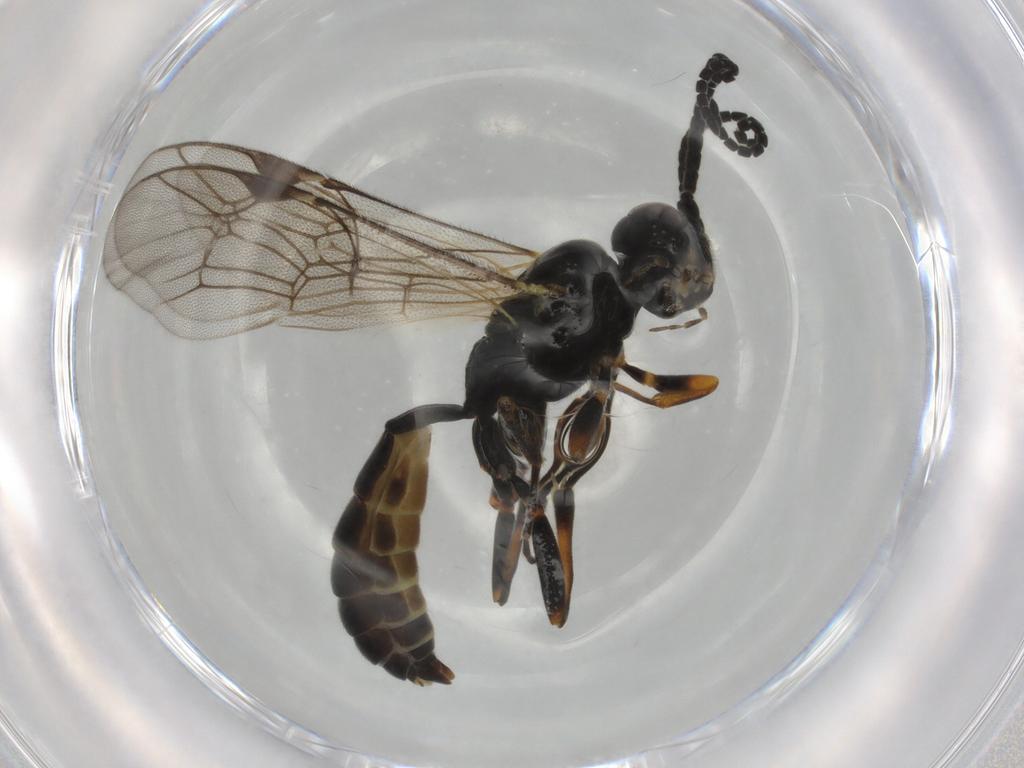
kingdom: Animalia
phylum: Arthropoda
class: Insecta
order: Hymenoptera
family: Ichneumonidae
